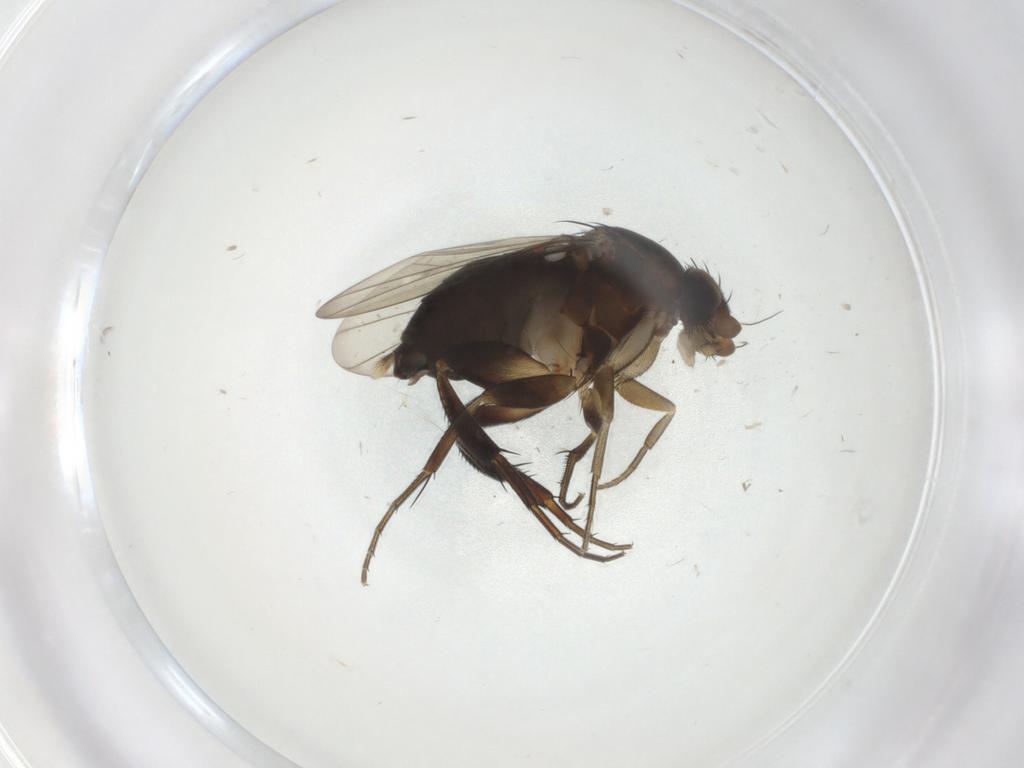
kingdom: Animalia
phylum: Arthropoda
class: Insecta
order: Diptera
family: Phoridae
